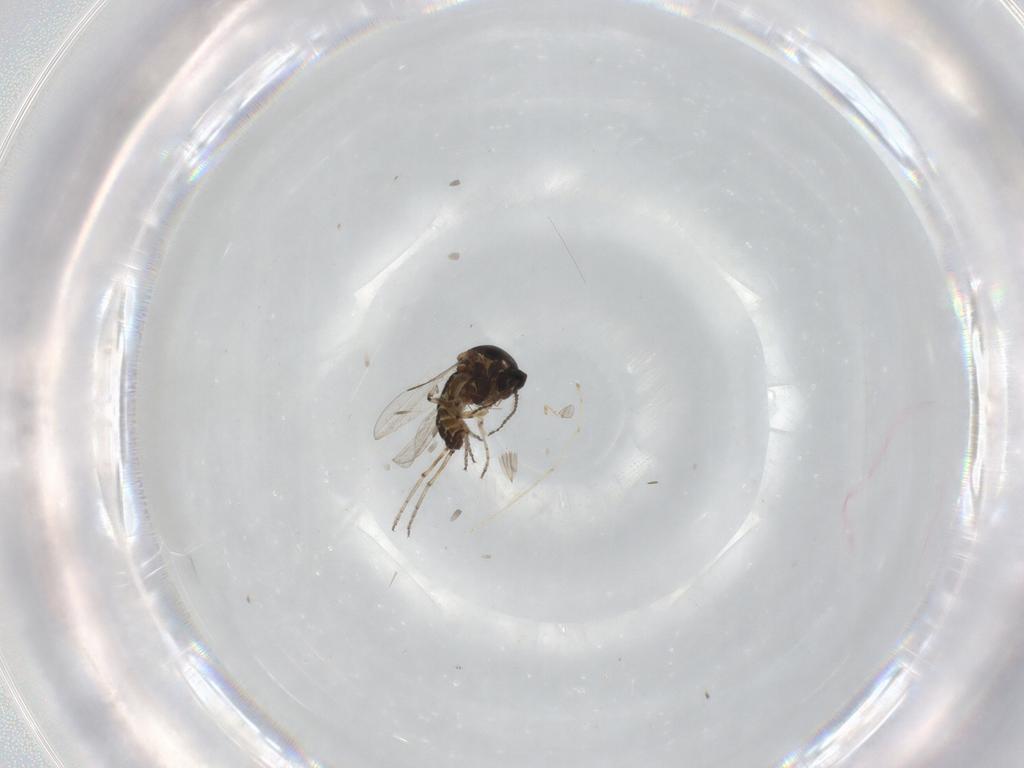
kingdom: Animalia
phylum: Arthropoda
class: Insecta
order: Diptera
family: Ceratopogonidae
